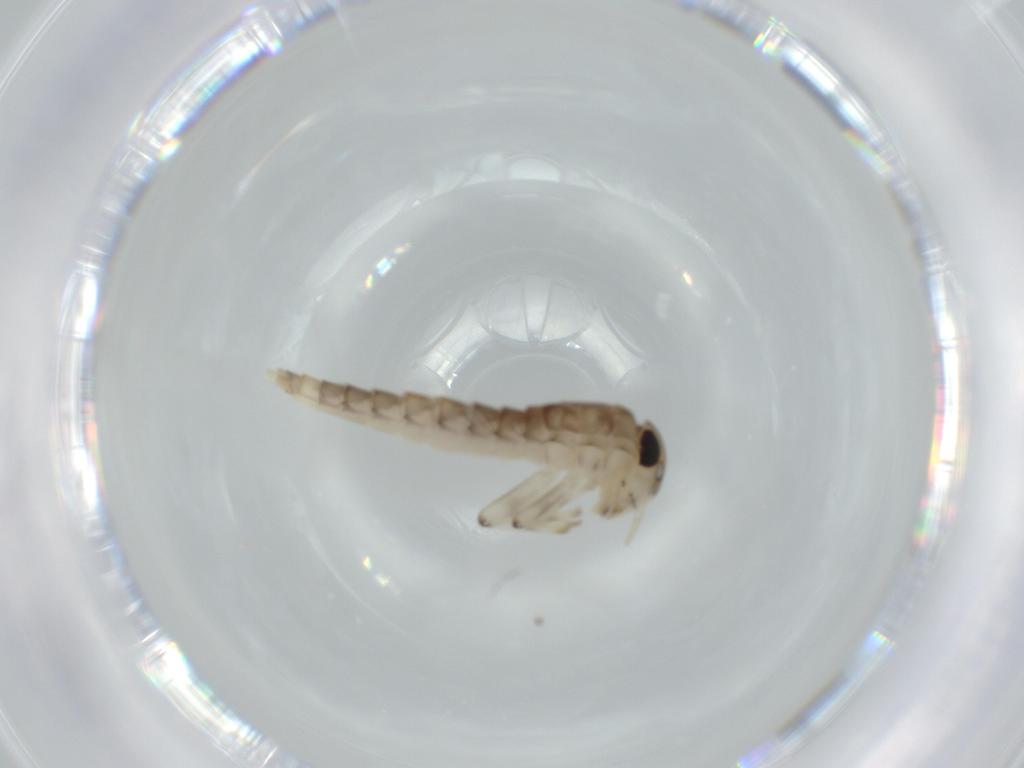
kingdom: Animalia
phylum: Arthropoda
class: Insecta
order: Ephemeroptera
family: Baetidae
